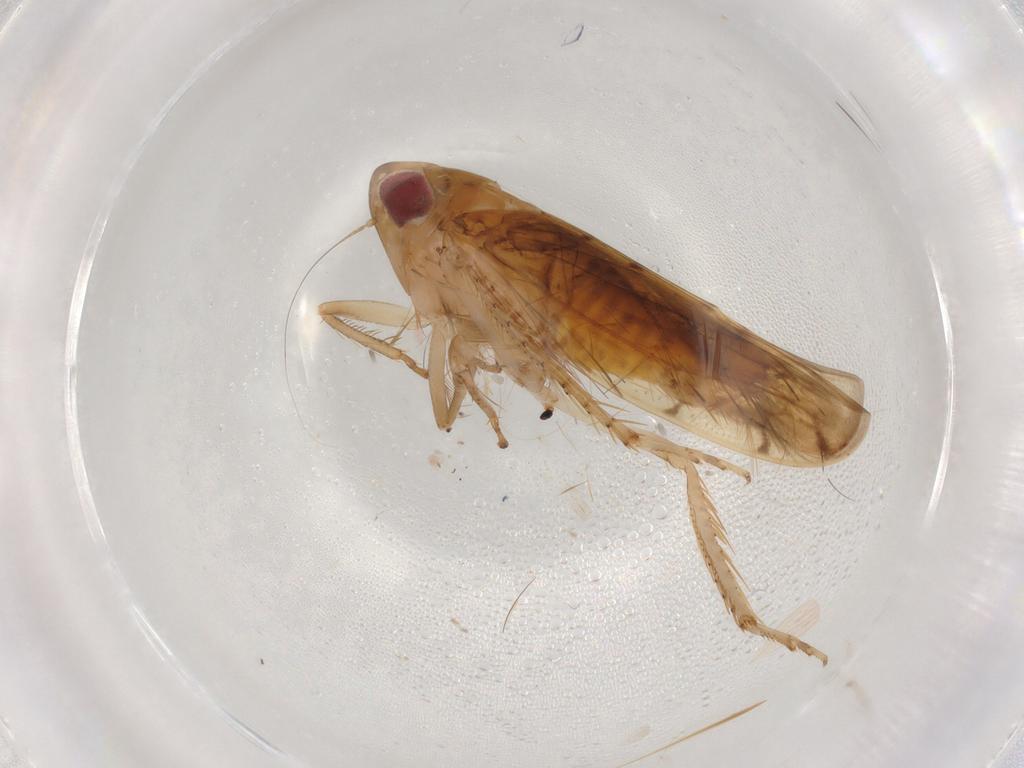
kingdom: Animalia
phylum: Arthropoda
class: Insecta
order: Hemiptera
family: Cicadellidae
